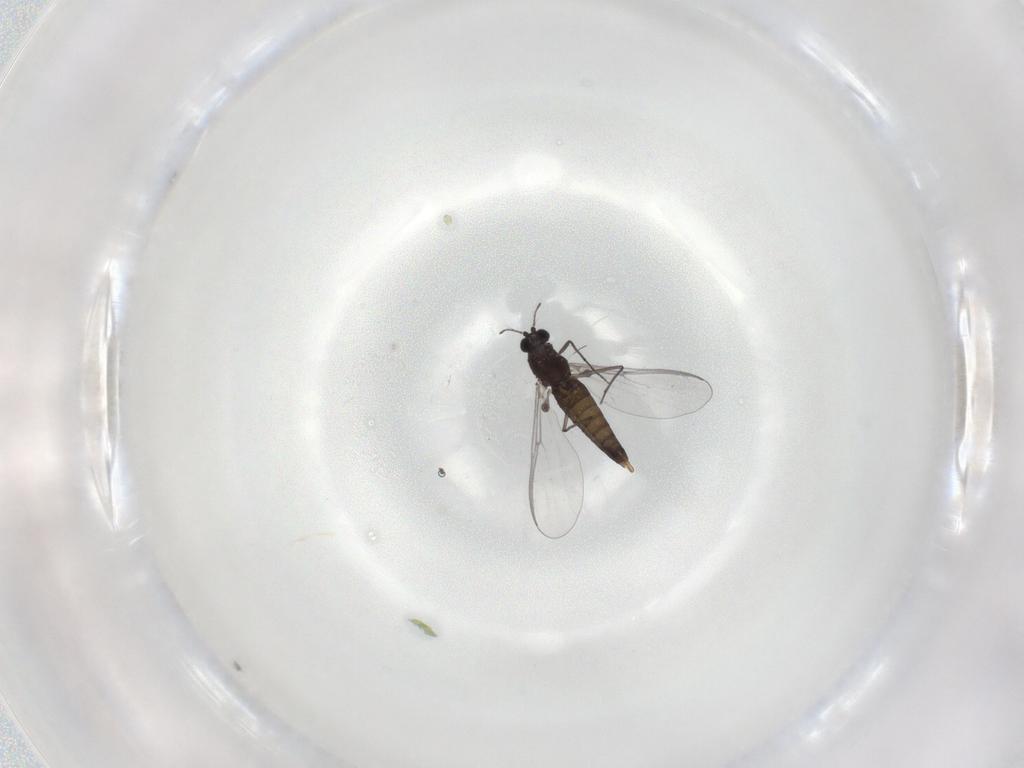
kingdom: Animalia
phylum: Arthropoda
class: Insecta
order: Diptera
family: Chironomidae
